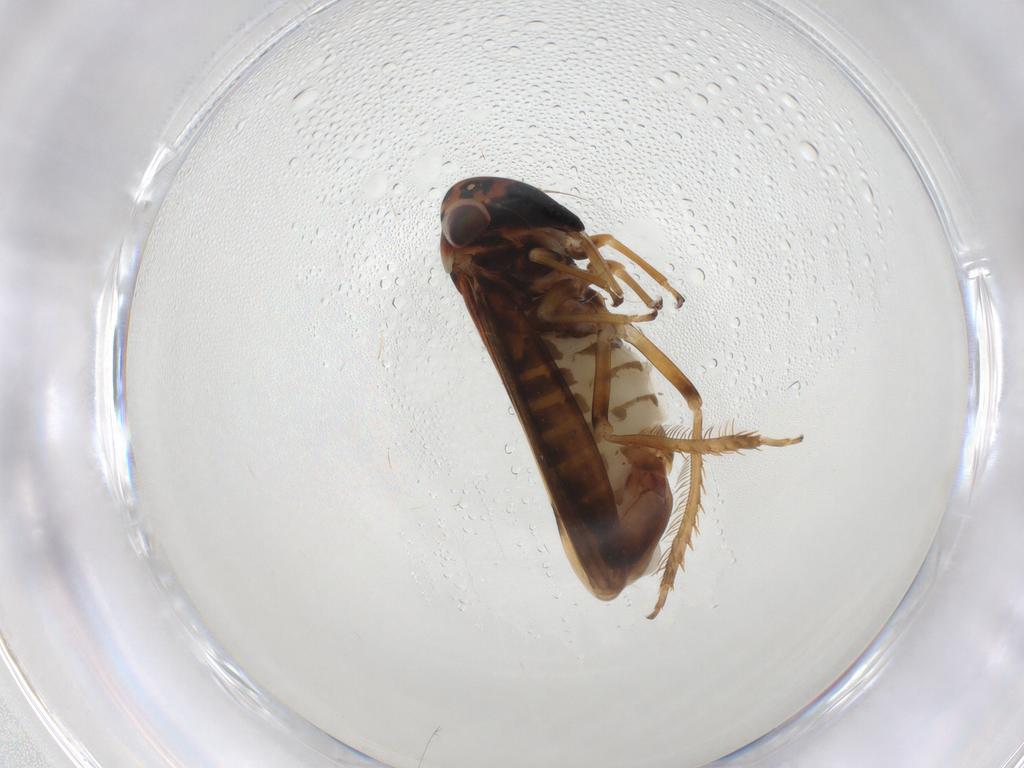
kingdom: Animalia
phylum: Arthropoda
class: Insecta
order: Hemiptera
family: Cicadellidae
